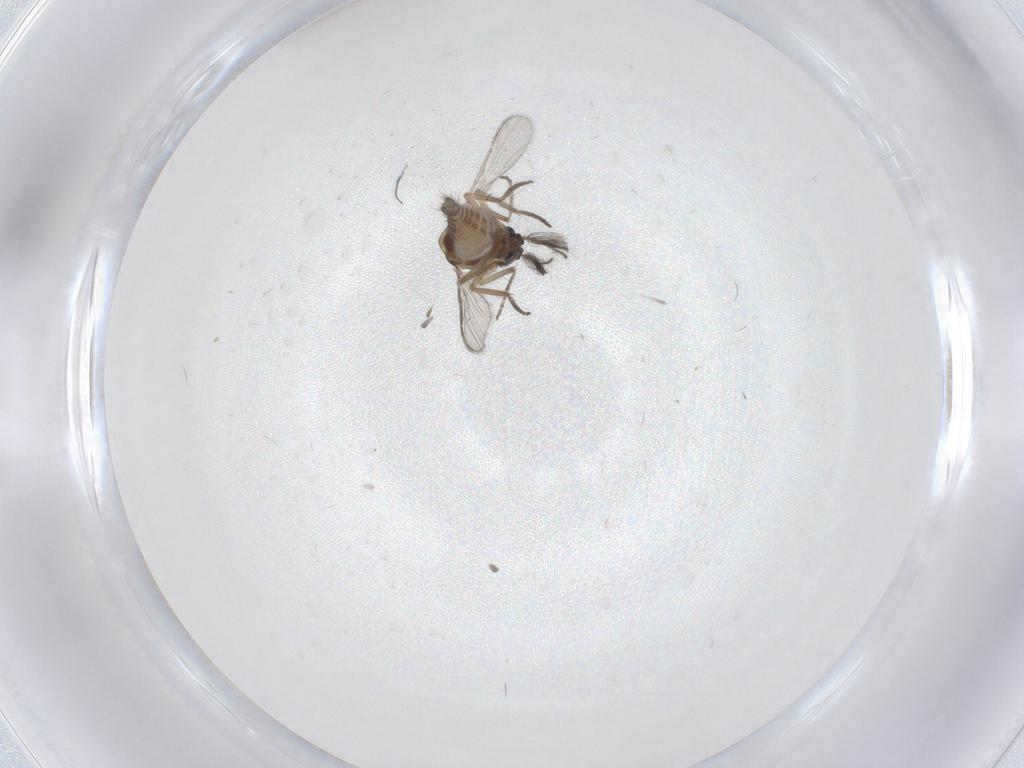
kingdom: Animalia
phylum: Arthropoda
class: Insecta
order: Diptera
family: Ceratopogonidae
